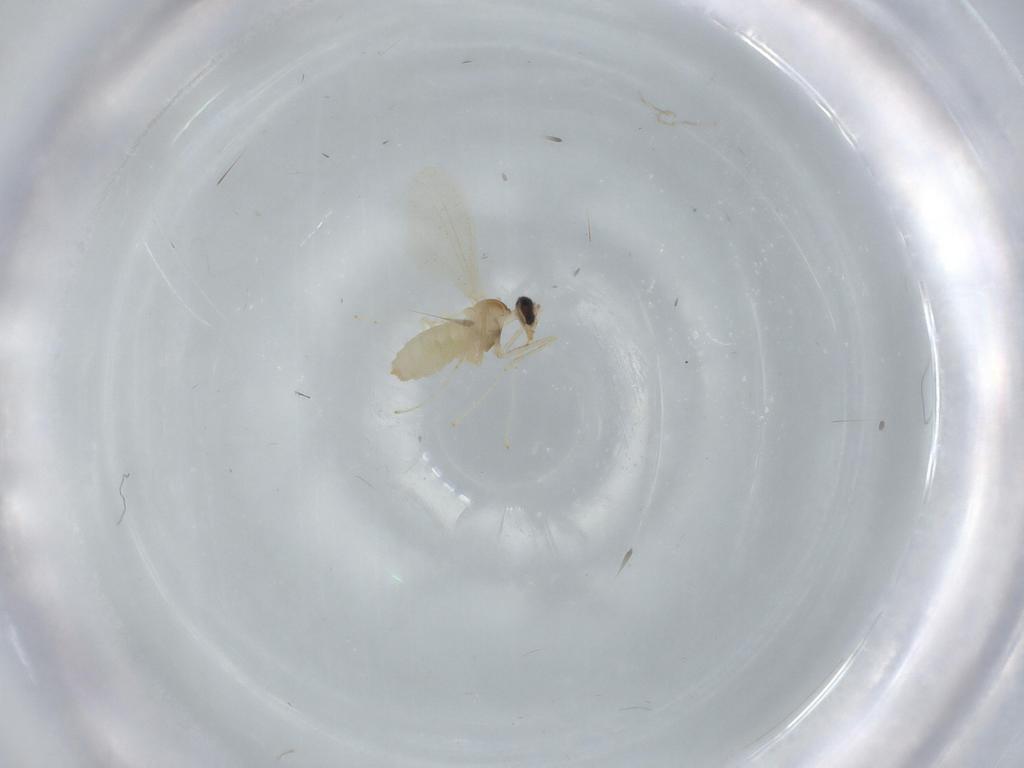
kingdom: Animalia
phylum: Arthropoda
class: Insecta
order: Diptera
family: Cecidomyiidae
